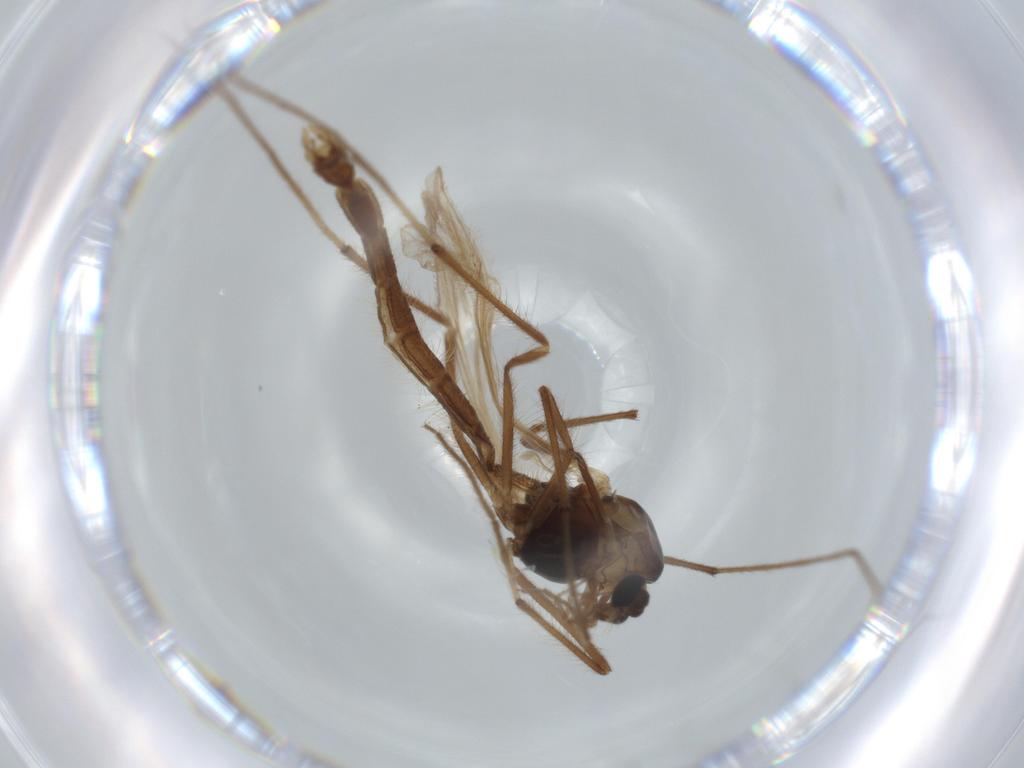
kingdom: Animalia
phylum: Arthropoda
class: Insecta
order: Diptera
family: Chironomidae
